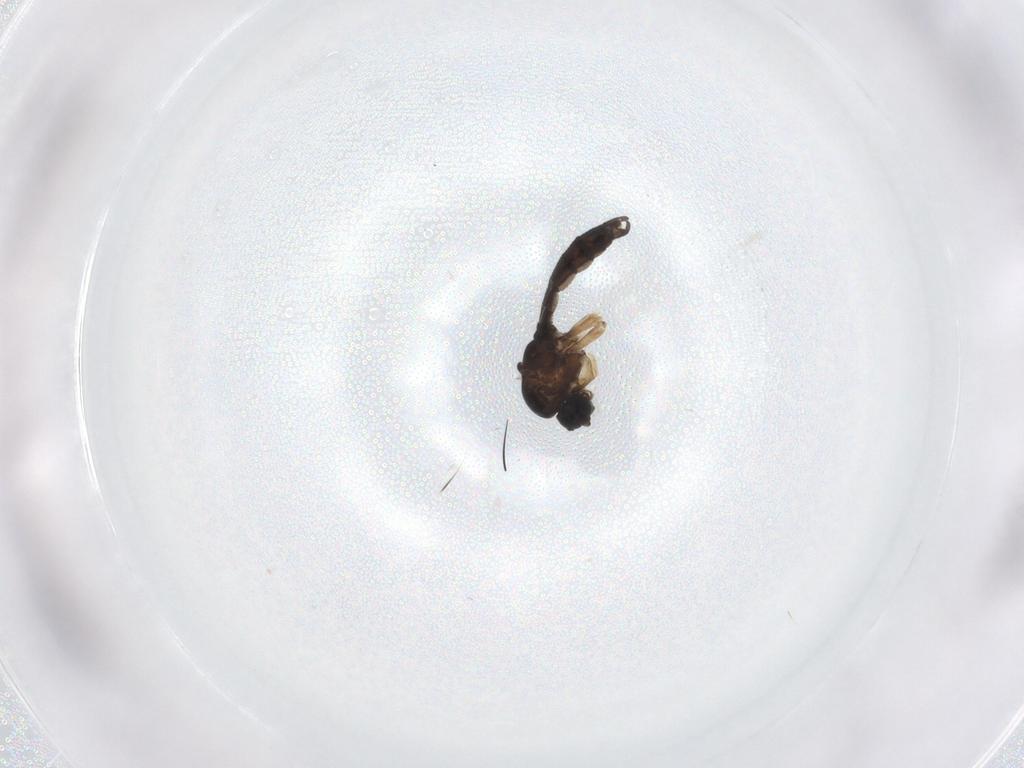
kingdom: Animalia
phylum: Arthropoda
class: Insecta
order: Diptera
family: Sciaridae
